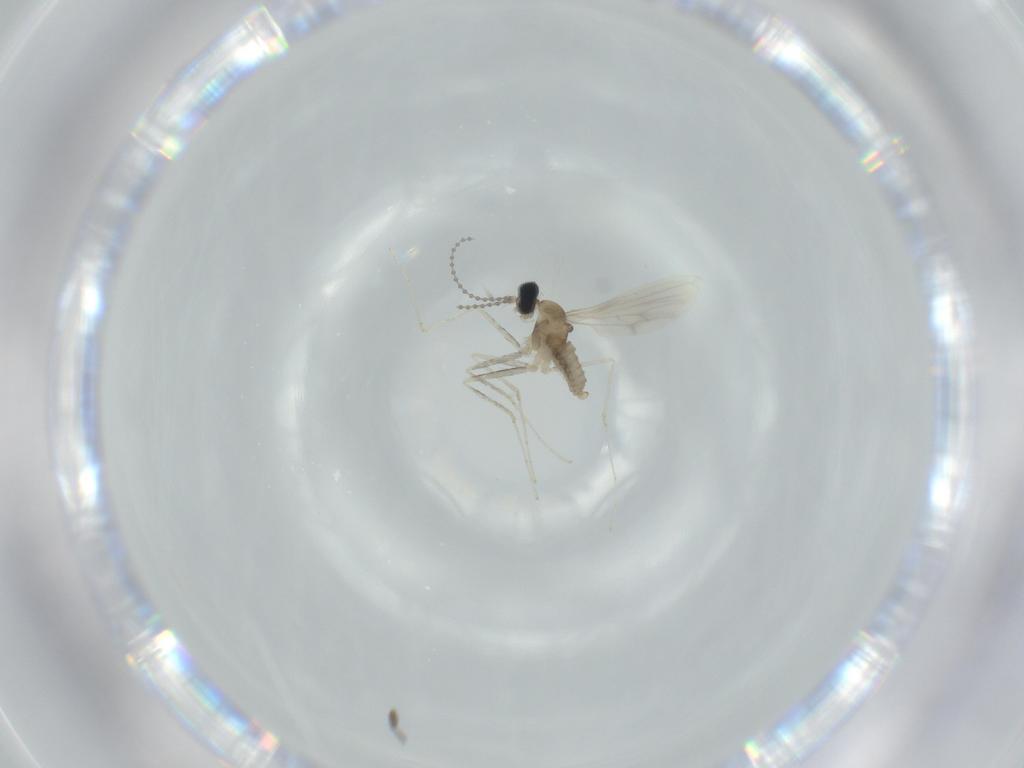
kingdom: Animalia
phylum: Arthropoda
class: Insecta
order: Diptera
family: Cecidomyiidae
